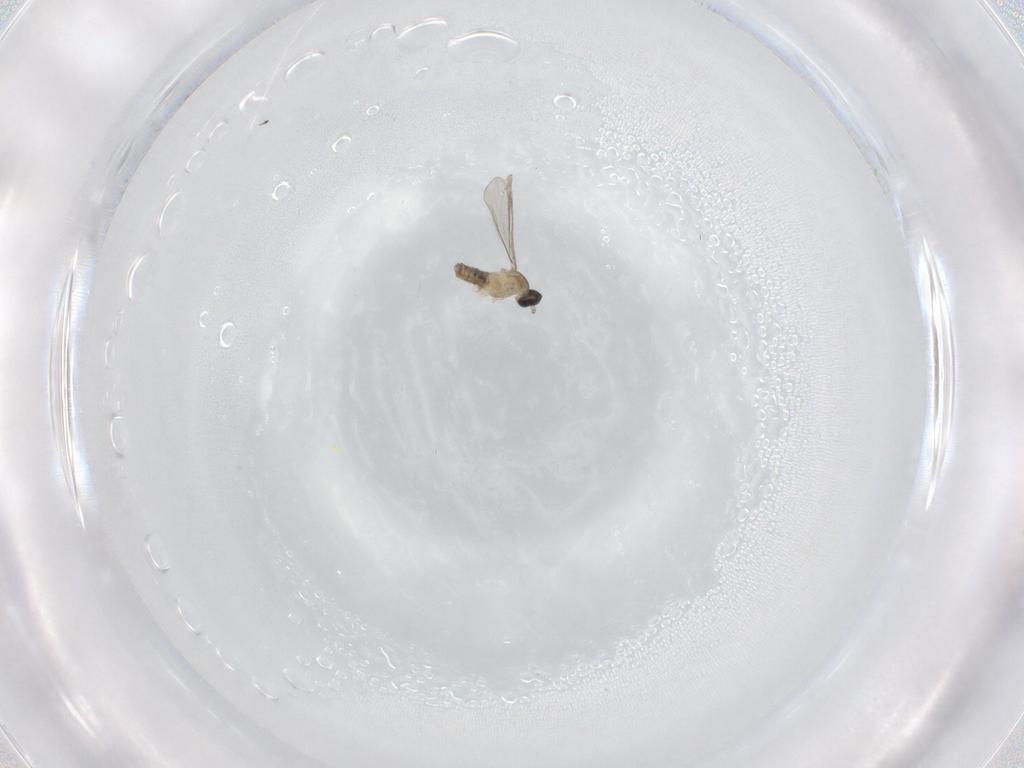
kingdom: Animalia
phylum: Arthropoda
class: Insecta
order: Diptera
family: Cecidomyiidae
